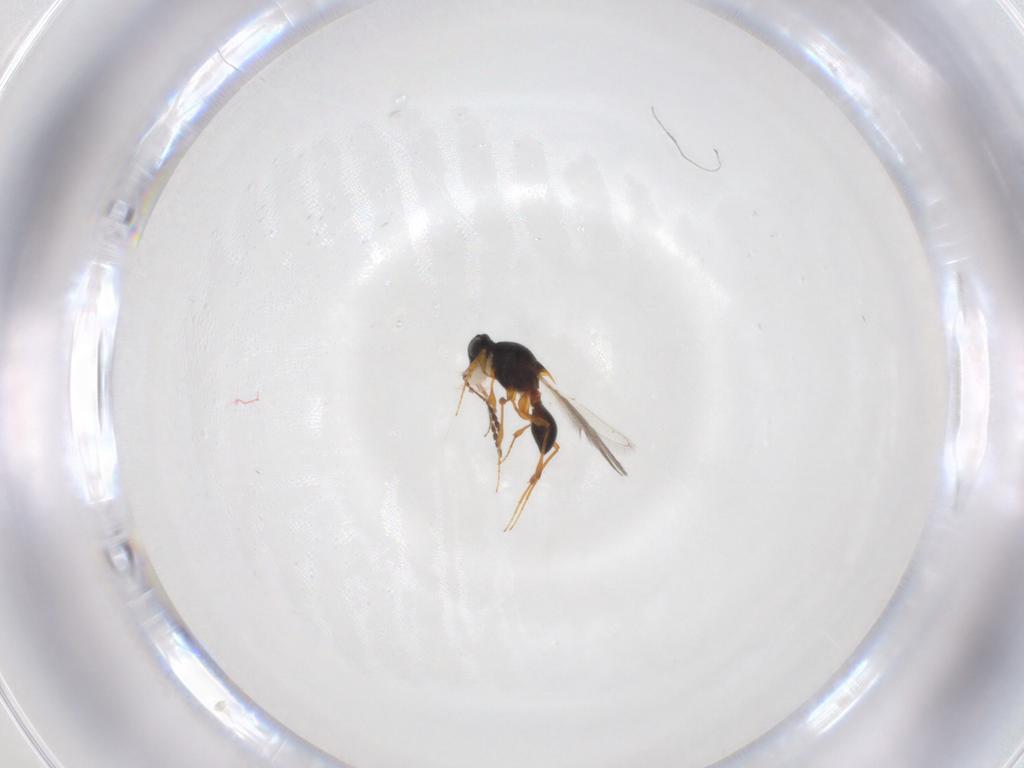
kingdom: Animalia
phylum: Arthropoda
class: Insecta
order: Hymenoptera
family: Platygastridae
